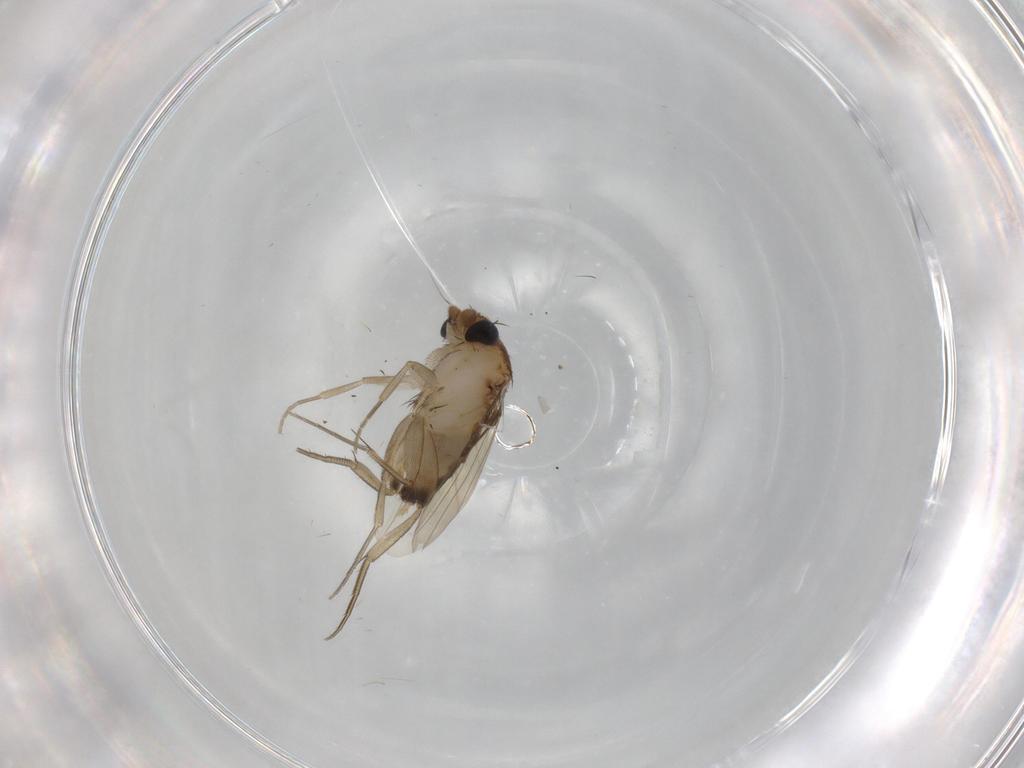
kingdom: Animalia
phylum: Arthropoda
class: Insecta
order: Diptera
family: Phoridae
